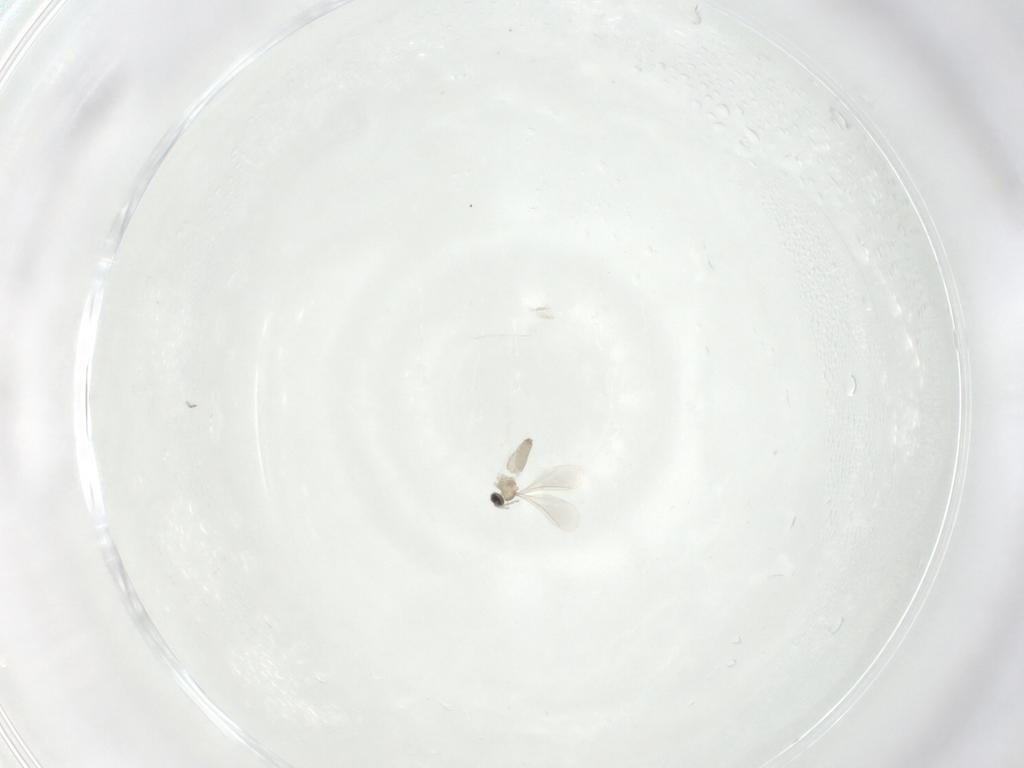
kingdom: Animalia
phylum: Arthropoda
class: Insecta
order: Diptera
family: Cecidomyiidae
